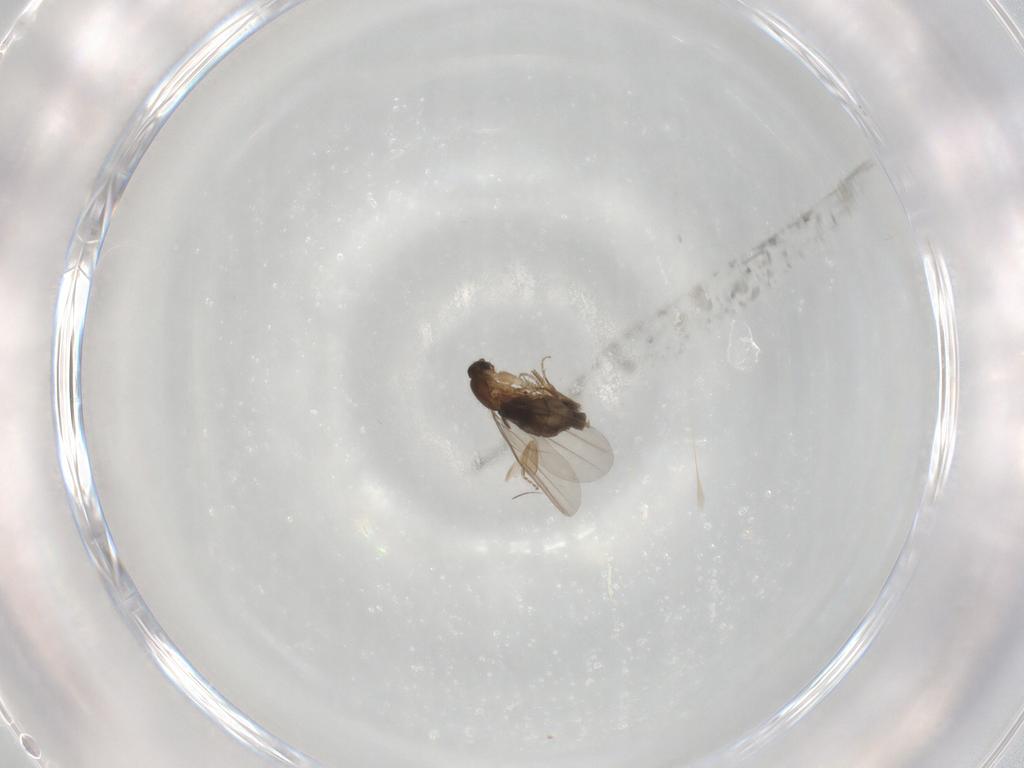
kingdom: Animalia
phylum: Arthropoda
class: Insecta
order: Diptera
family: Phoridae
